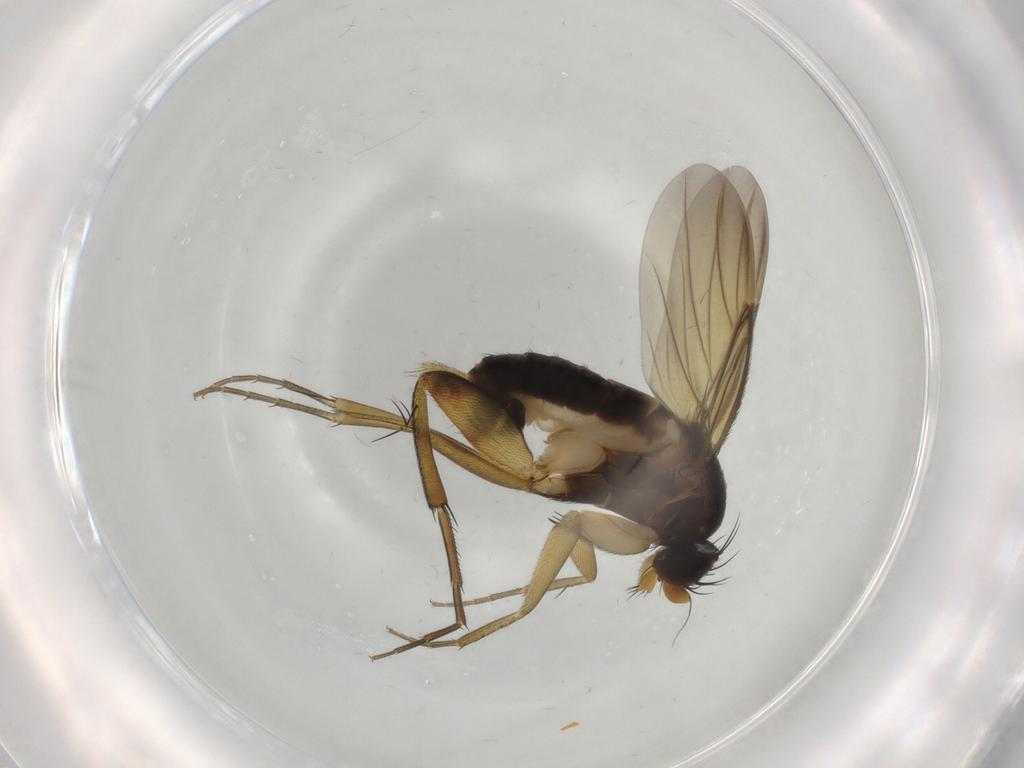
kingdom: Animalia
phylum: Arthropoda
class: Insecta
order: Diptera
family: Phoridae
